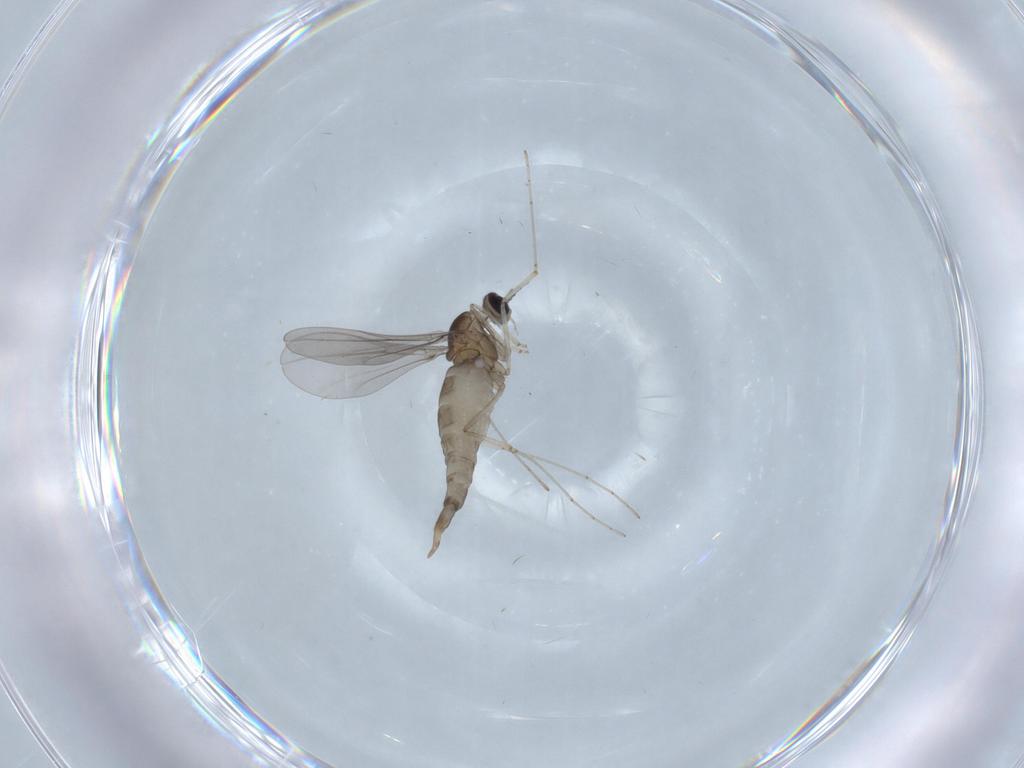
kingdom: Animalia
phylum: Arthropoda
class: Insecta
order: Diptera
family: Cecidomyiidae
